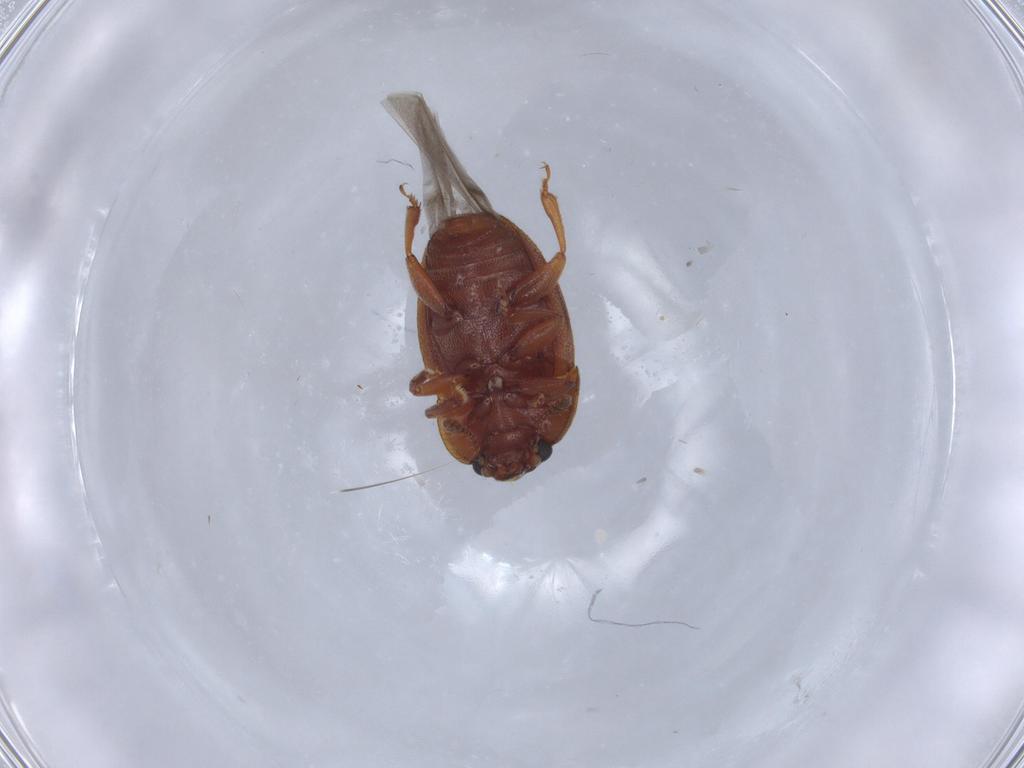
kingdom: Animalia
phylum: Arthropoda
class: Insecta
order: Coleoptera
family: Nitidulidae
